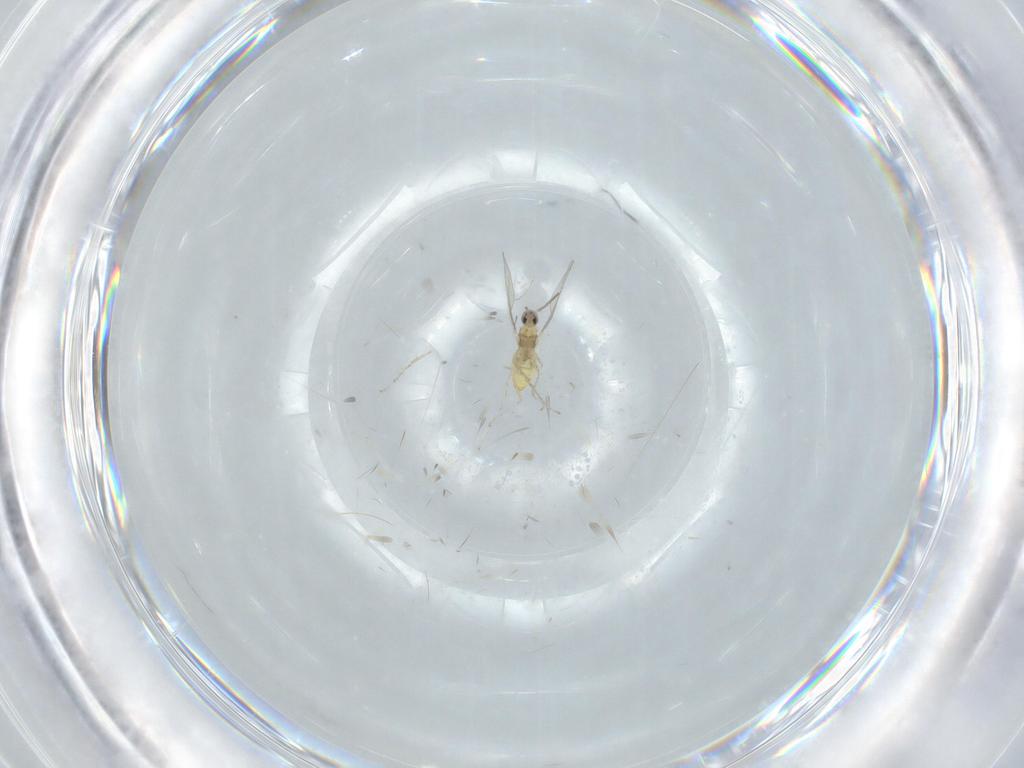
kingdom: Animalia
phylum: Arthropoda
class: Insecta
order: Diptera
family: Cecidomyiidae
